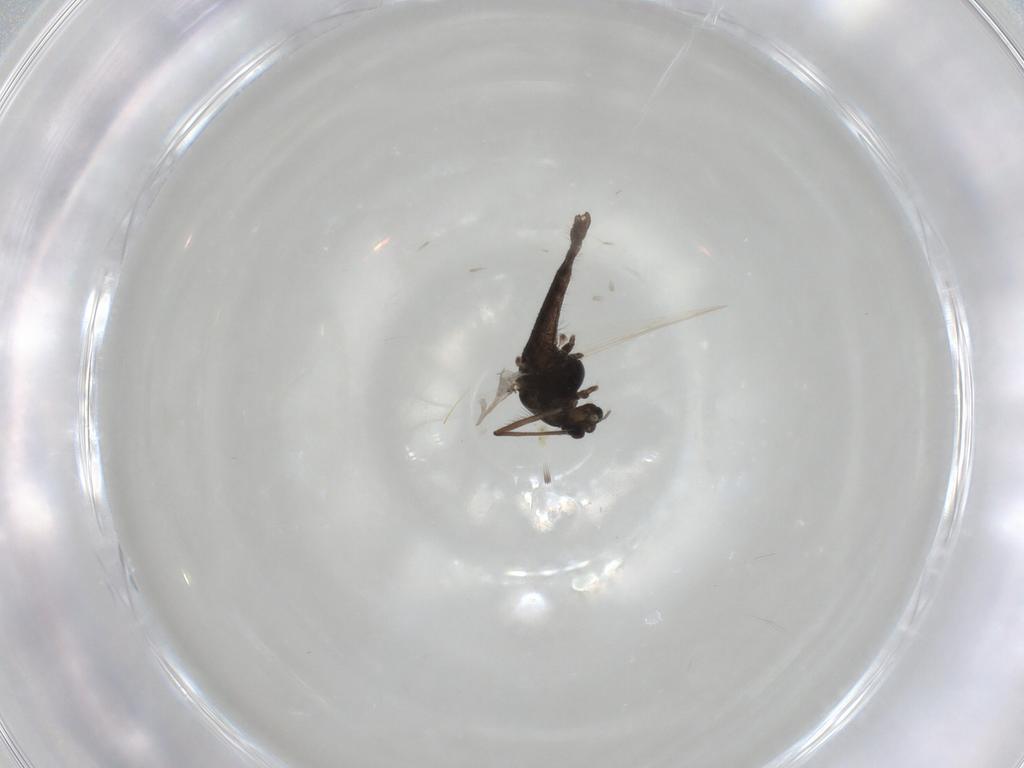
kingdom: Animalia
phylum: Arthropoda
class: Insecta
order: Diptera
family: Chironomidae
